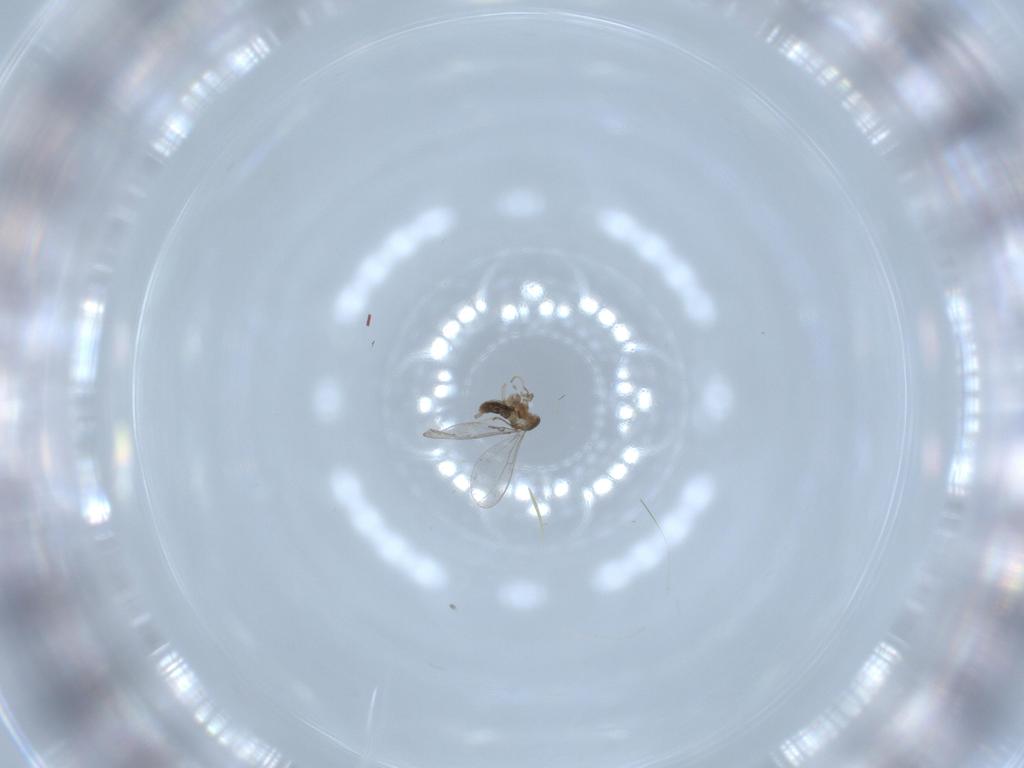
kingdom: Animalia
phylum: Arthropoda
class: Insecta
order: Diptera
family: Cecidomyiidae
